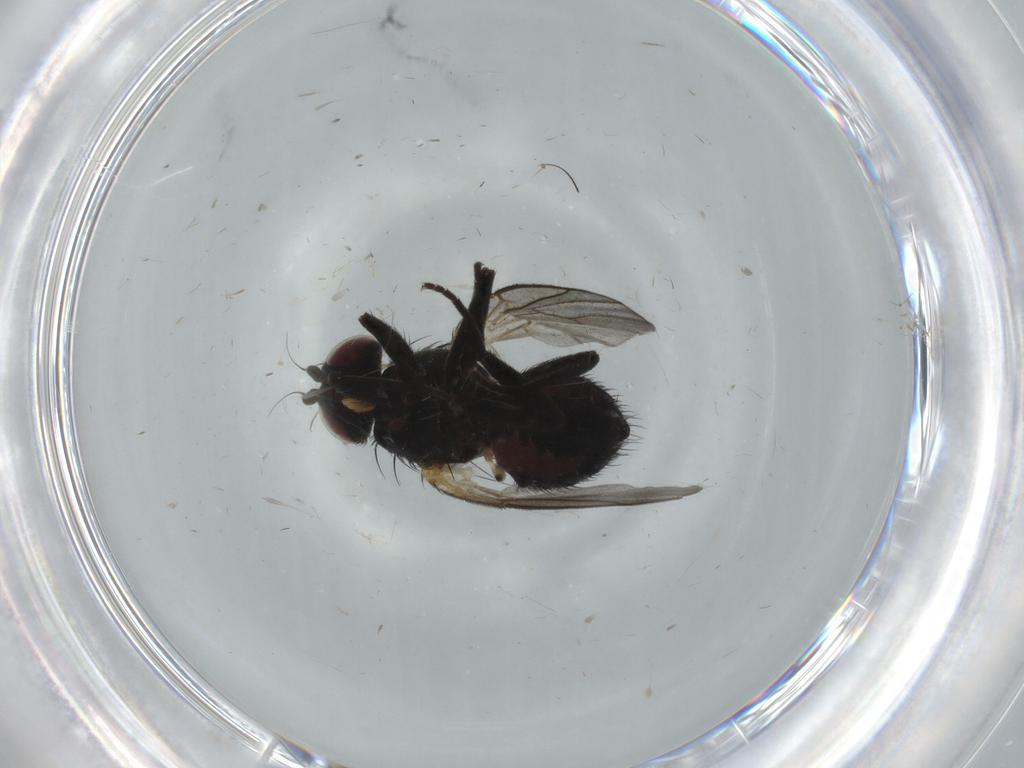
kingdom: Animalia
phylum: Arthropoda
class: Insecta
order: Diptera
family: Agromyzidae
